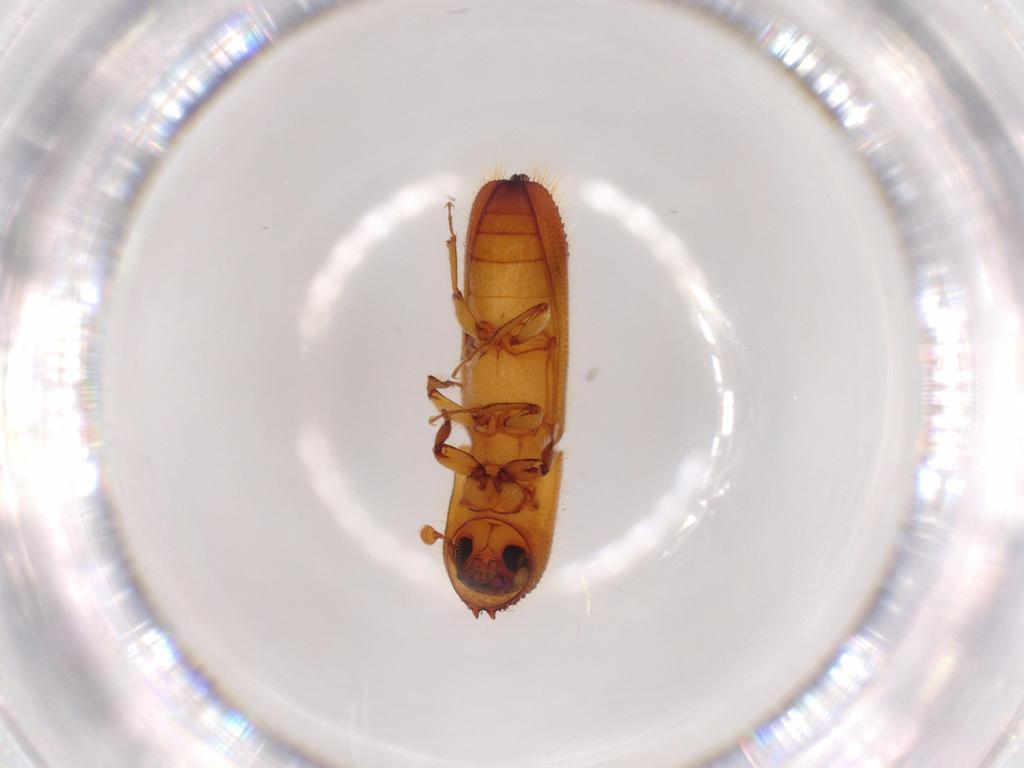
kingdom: Animalia
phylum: Arthropoda
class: Insecta
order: Coleoptera
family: Curculionidae
